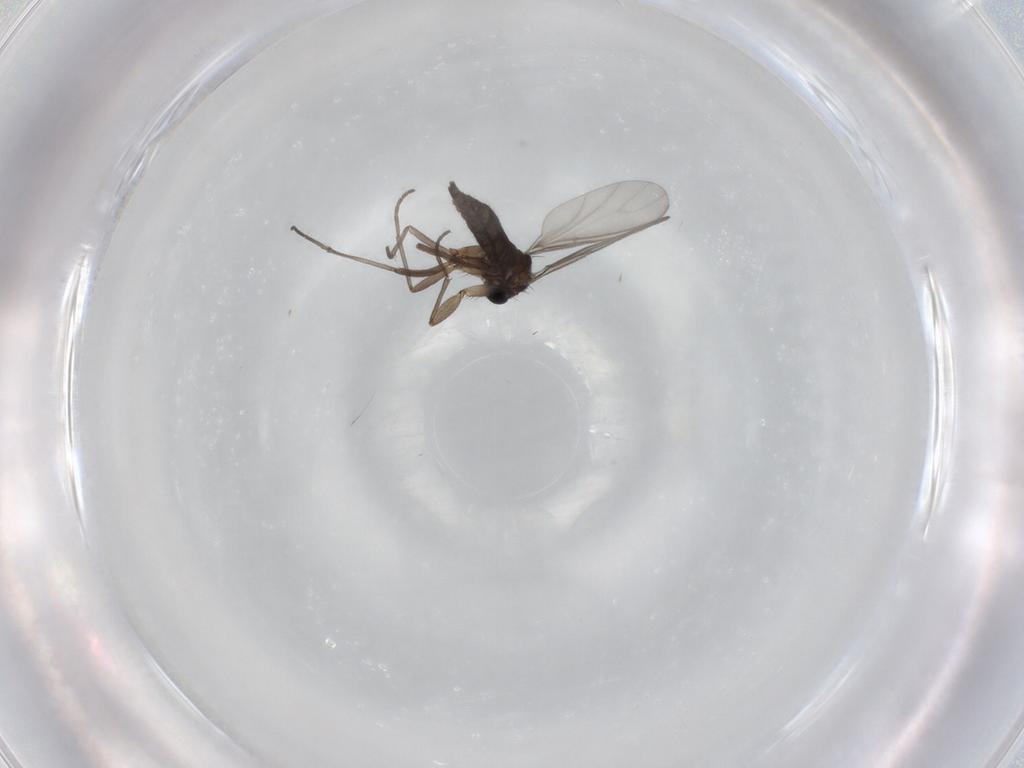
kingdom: Animalia
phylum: Arthropoda
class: Insecta
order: Diptera
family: Sciaridae
